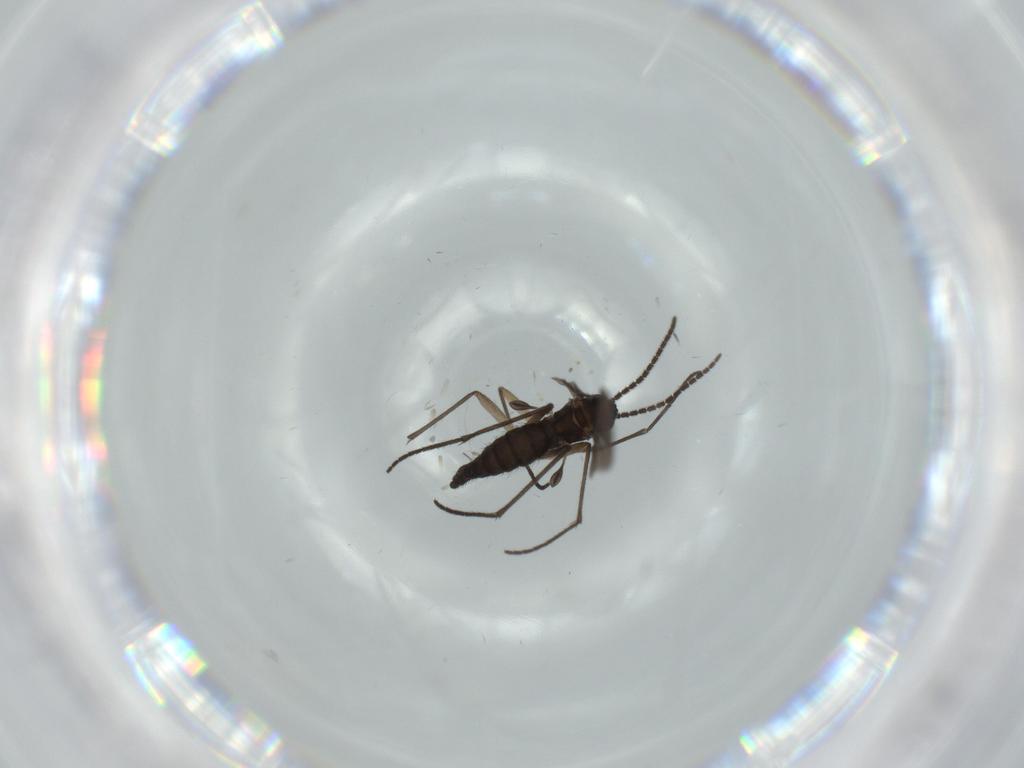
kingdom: Animalia
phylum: Arthropoda
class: Insecta
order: Diptera
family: Sciaridae
